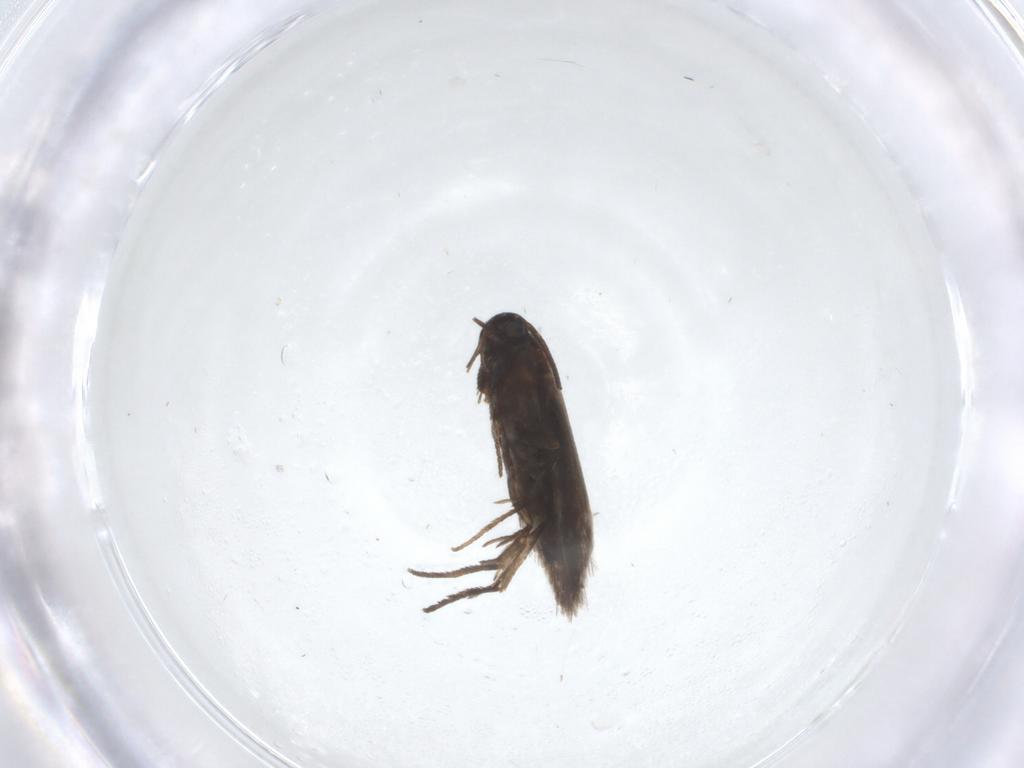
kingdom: Animalia
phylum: Arthropoda
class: Insecta
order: Lepidoptera
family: Heliozelidae
